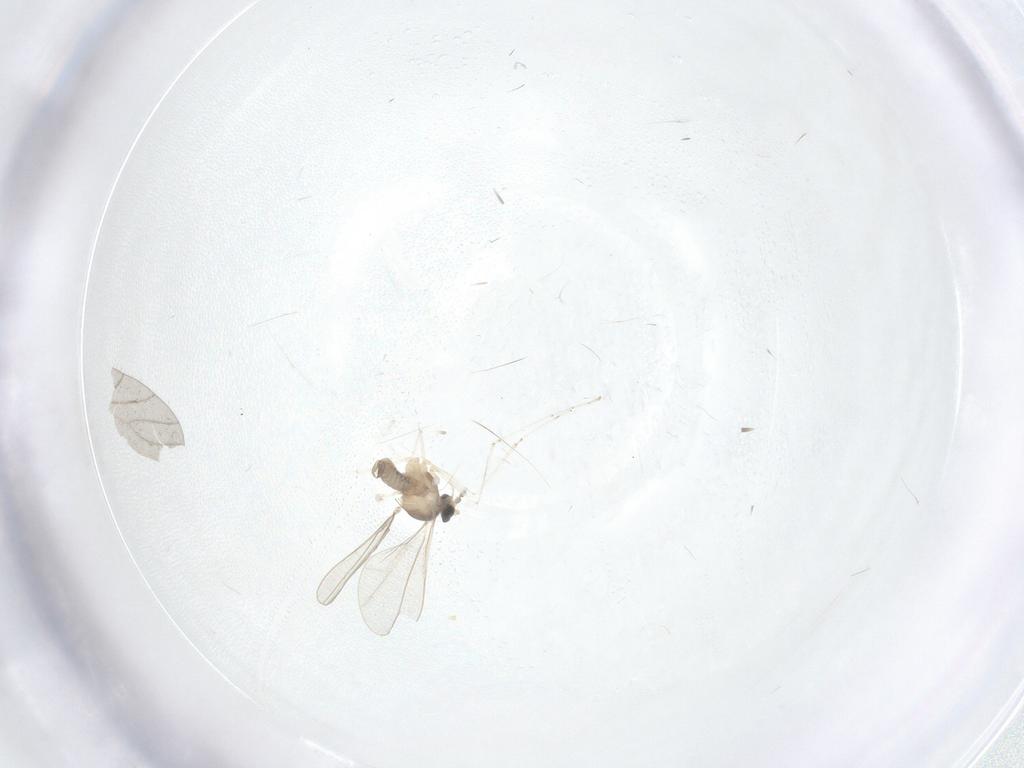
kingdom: Animalia
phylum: Arthropoda
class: Insecta
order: Diptera
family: Cecidomyiidae
